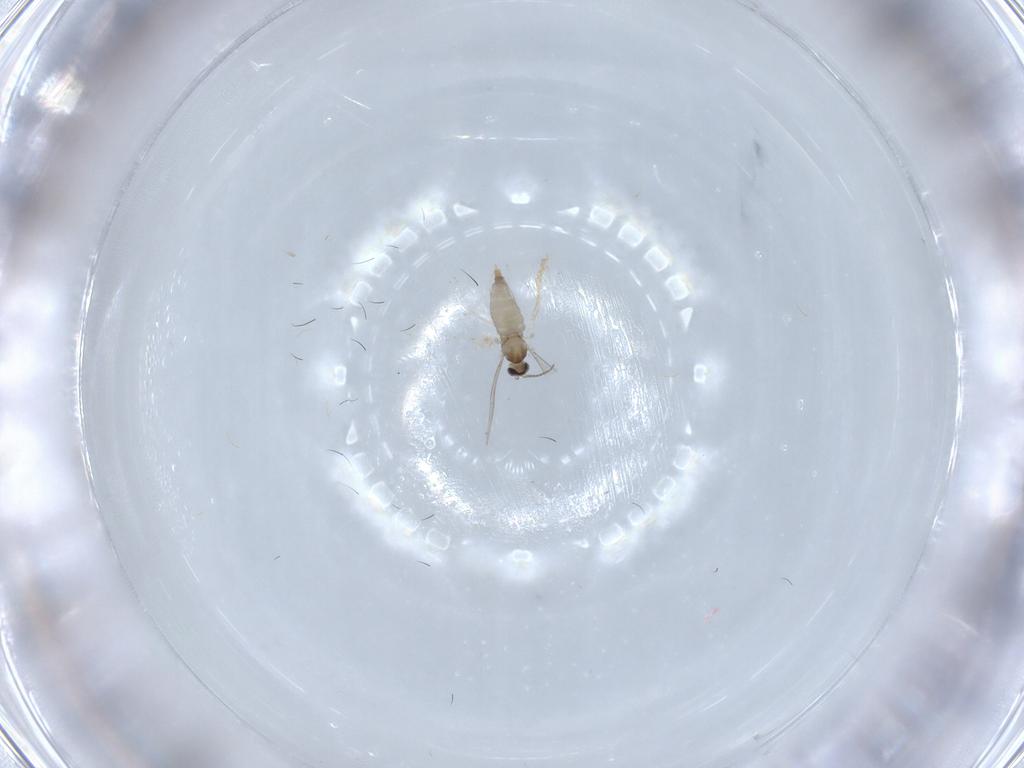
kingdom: Animalia
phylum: Arthropoda
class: Insecta
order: Diptera
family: Cecidomyiidae
